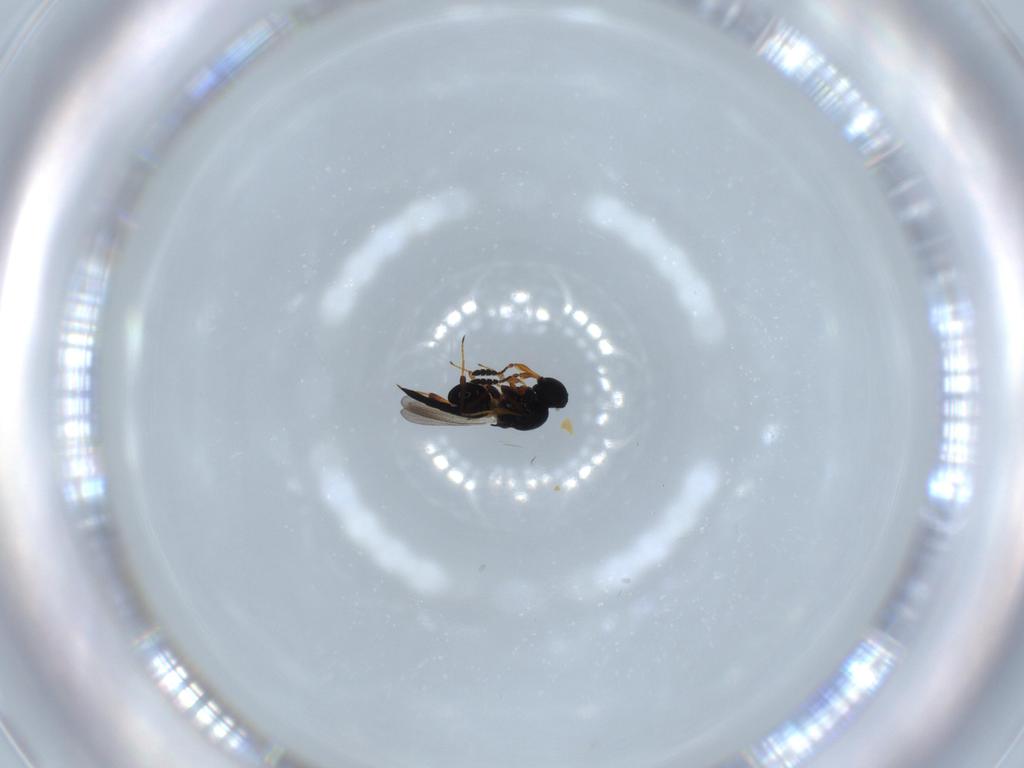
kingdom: Animalia
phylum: Arthropoda
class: Insecta
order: Hymenoptera
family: Platygastridae
